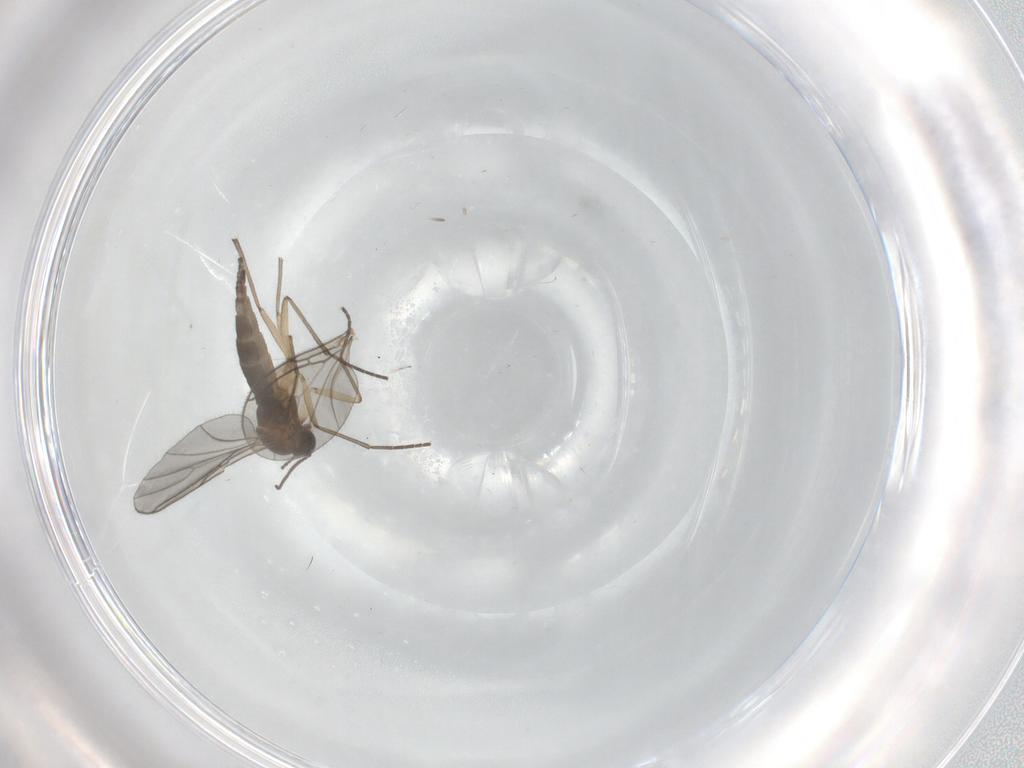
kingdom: Animalia
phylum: Arthropoda
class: Insecta
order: Diptera
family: Sciaridae
